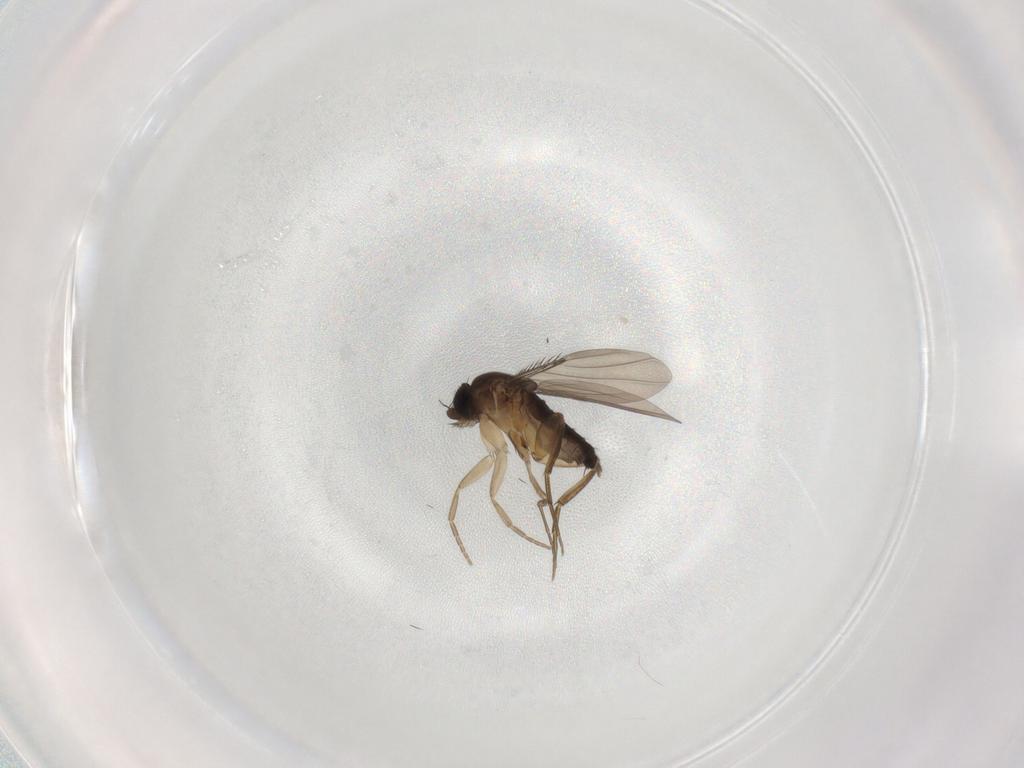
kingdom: Animalia
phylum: Arthropoda
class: Insecta
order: Diptera
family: Phoridae
